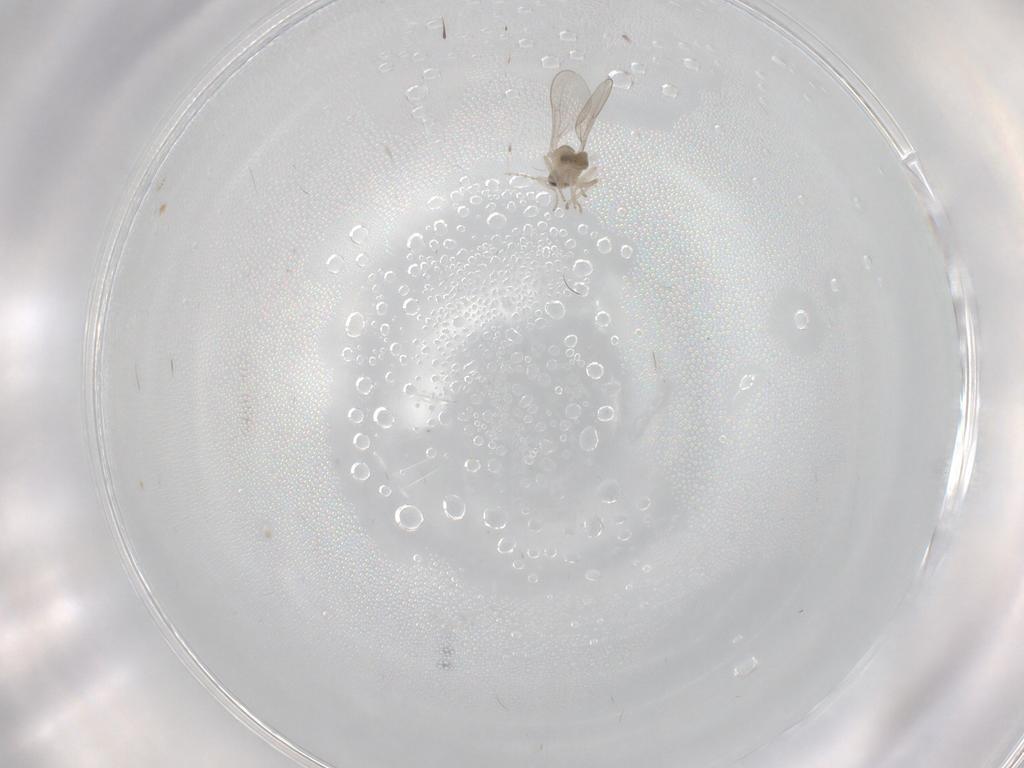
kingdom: Animalia
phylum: Arthropoda
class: Insecta
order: Diptera
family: Cecidomyiidae
